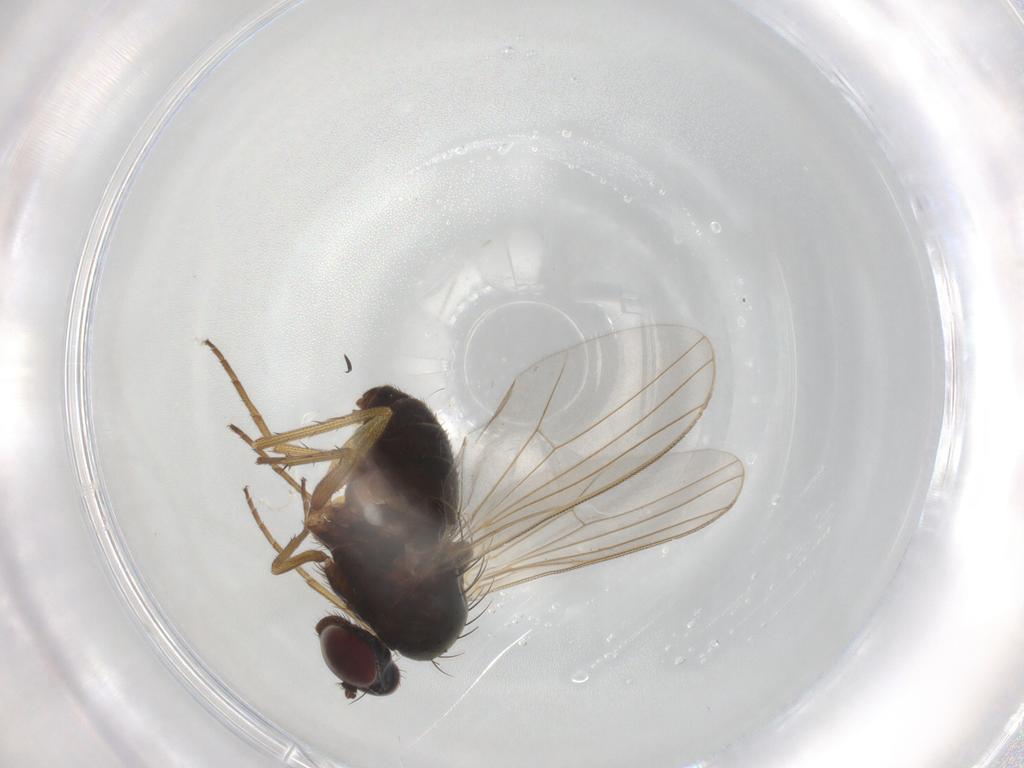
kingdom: Animalia
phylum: Arthropoda
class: Insecta
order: Diptera
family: Dolichopodidae
